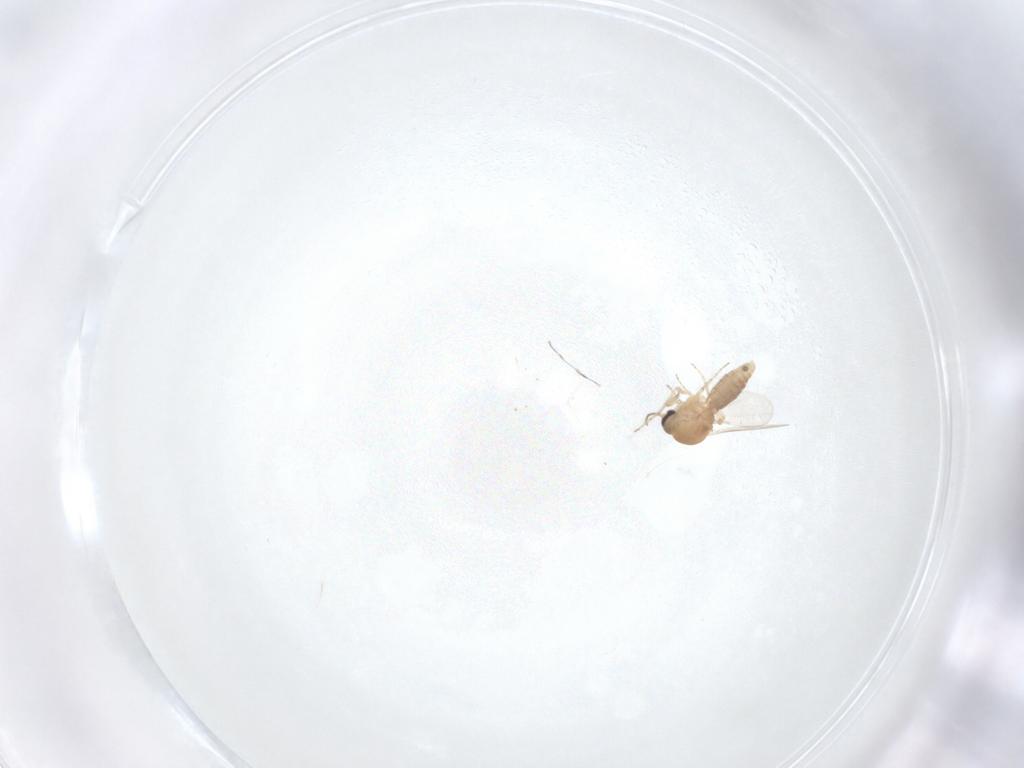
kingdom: Animalia
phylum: Arthropoda
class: Insecta
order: Diptera
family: Ceratopogonidae
